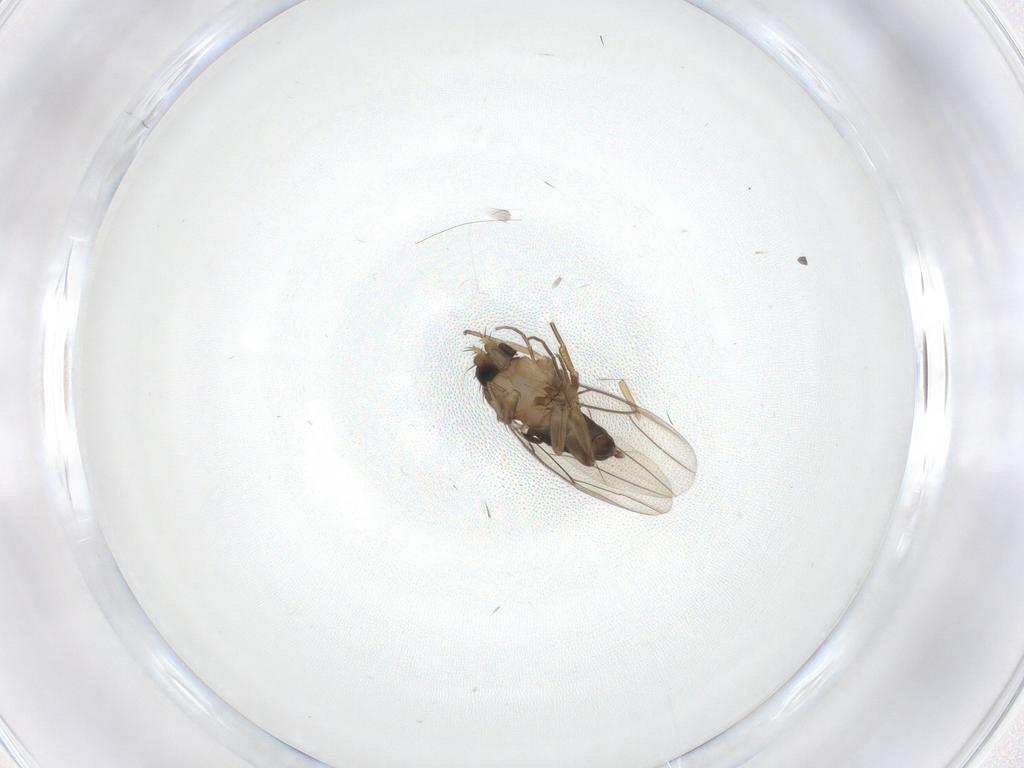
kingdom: Animalia
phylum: Arthropoda
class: Insecta
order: Diptera
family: Phoridae
